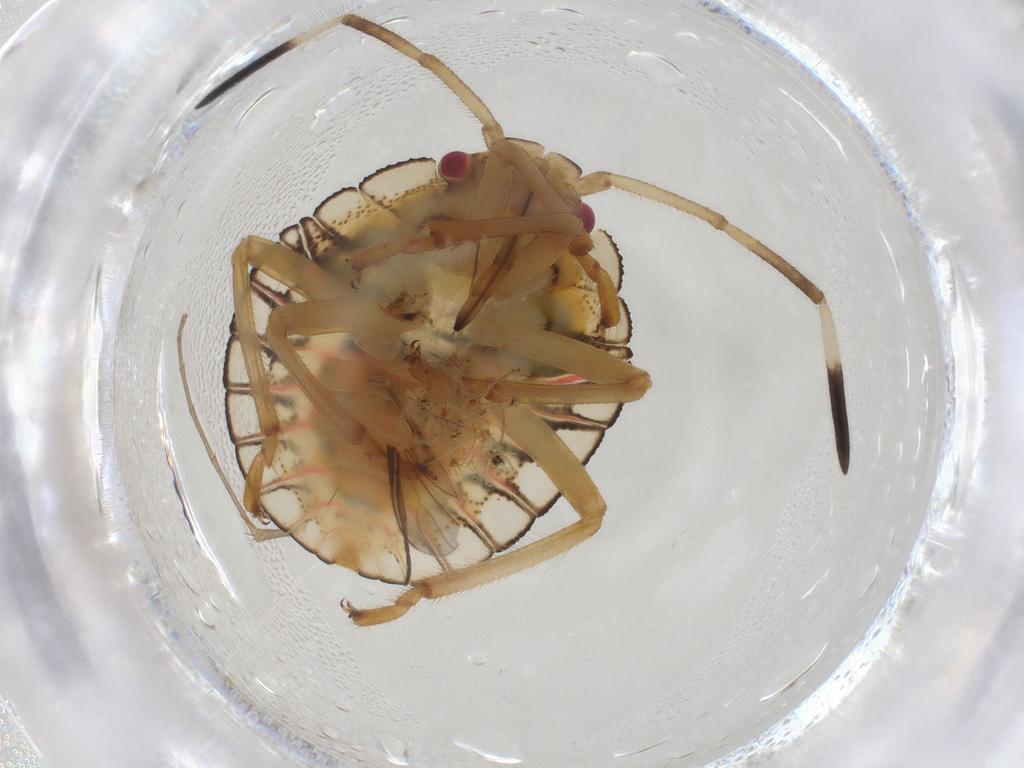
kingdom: Animalia
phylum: Arthropoda
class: Insecta
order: Hemiptera
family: Pentatomidae
